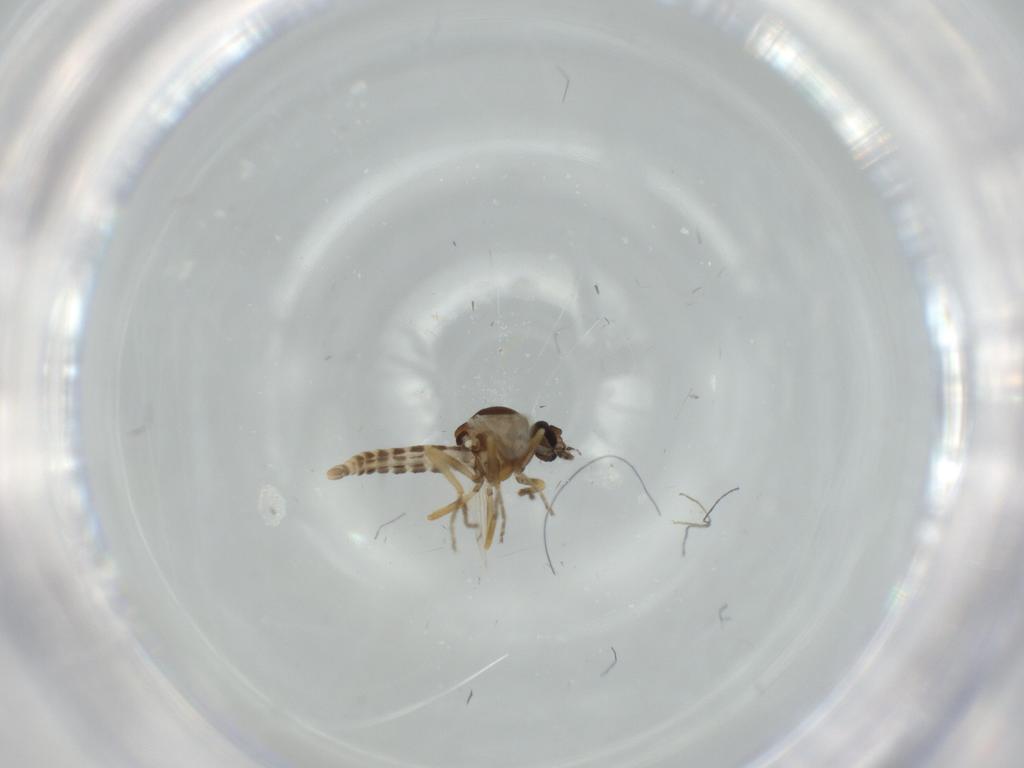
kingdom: Animalia
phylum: Arthropoda
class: Insecta
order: Diptera
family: Ceratopogonidae
